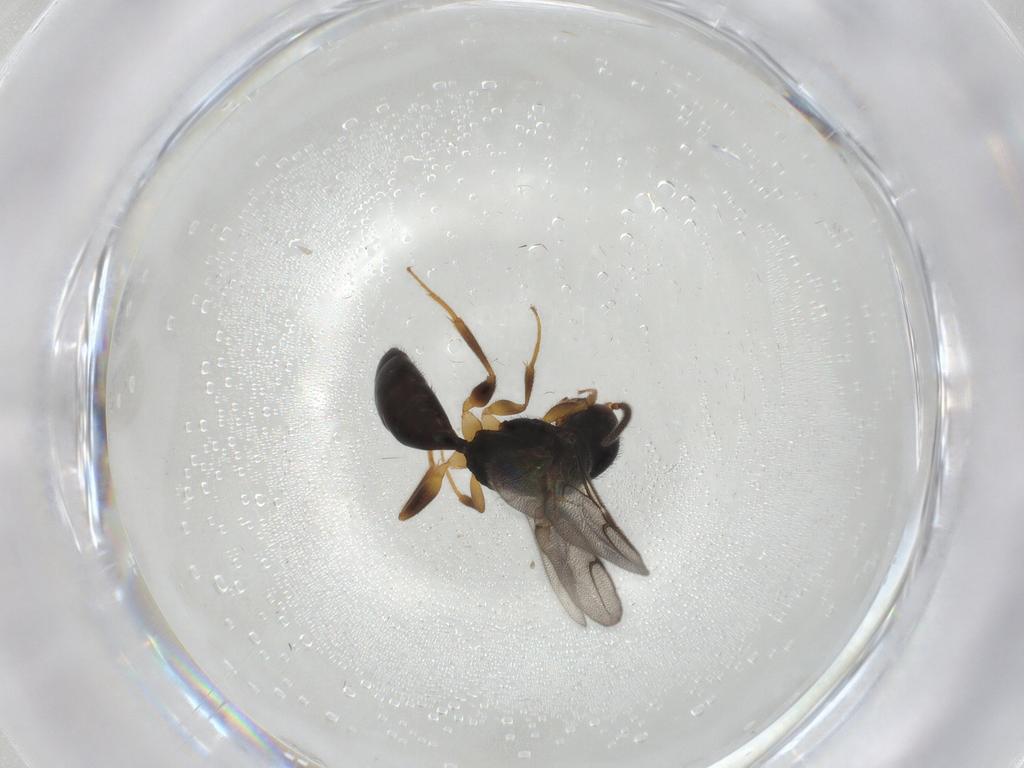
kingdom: Animalia
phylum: Arthropoda
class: Insecta
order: Hymenoptera
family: Bethylidae
